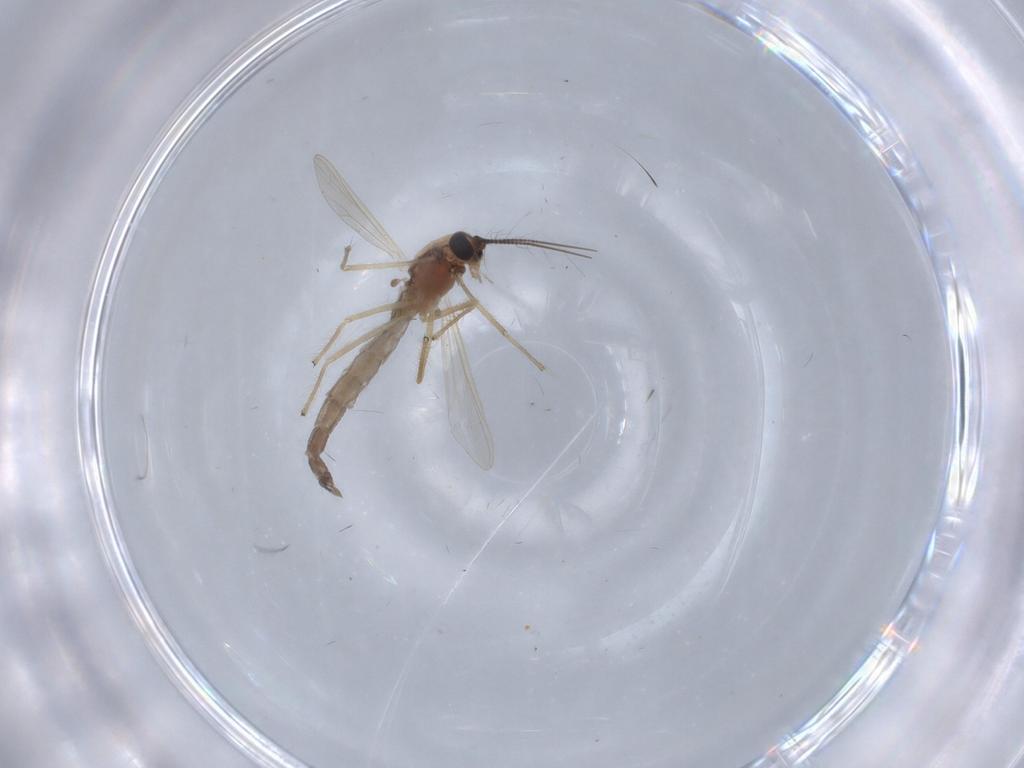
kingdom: Animalia
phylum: Arthropoda
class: Insecta
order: Diptera
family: Chironomidae
